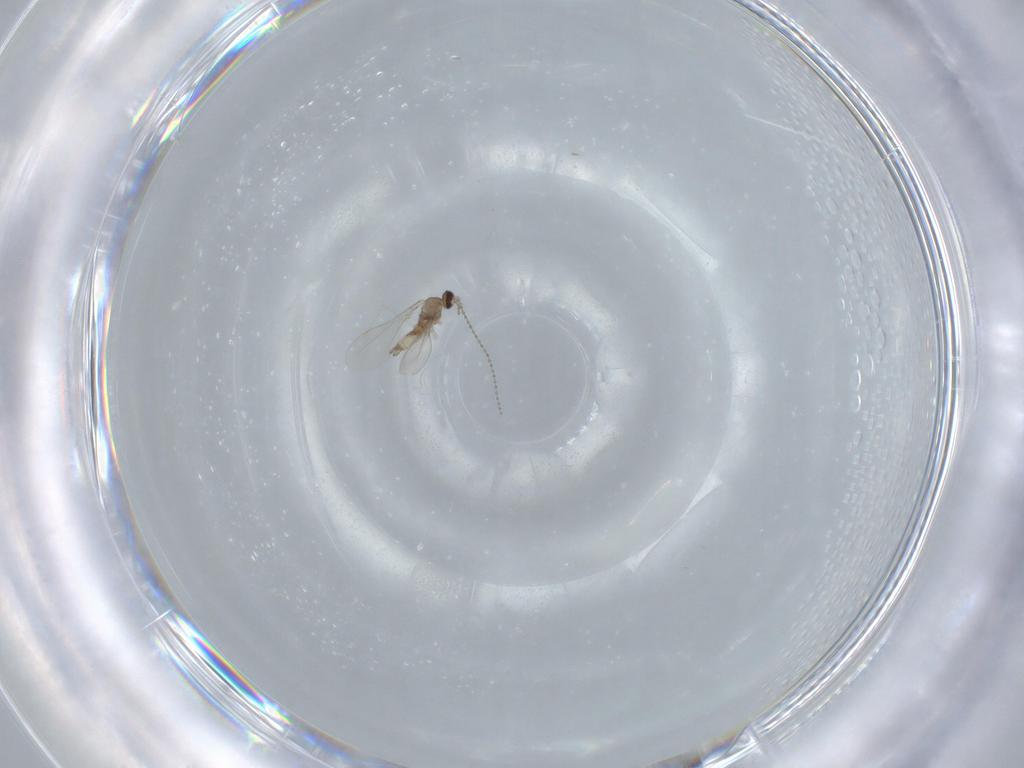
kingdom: Animalia
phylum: Arthropoda
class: Insecta
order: Diptera
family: Cecidomyiidae
